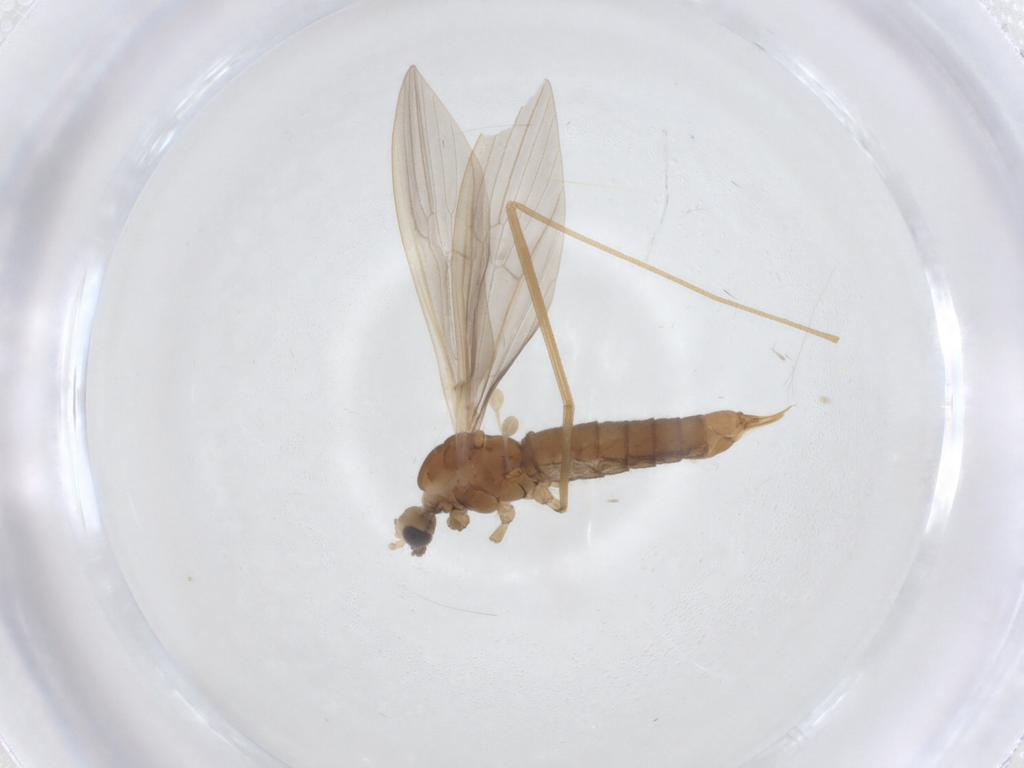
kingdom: Animalia
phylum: Arthropoda
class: Insecta
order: Diptera
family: Limoniidae
